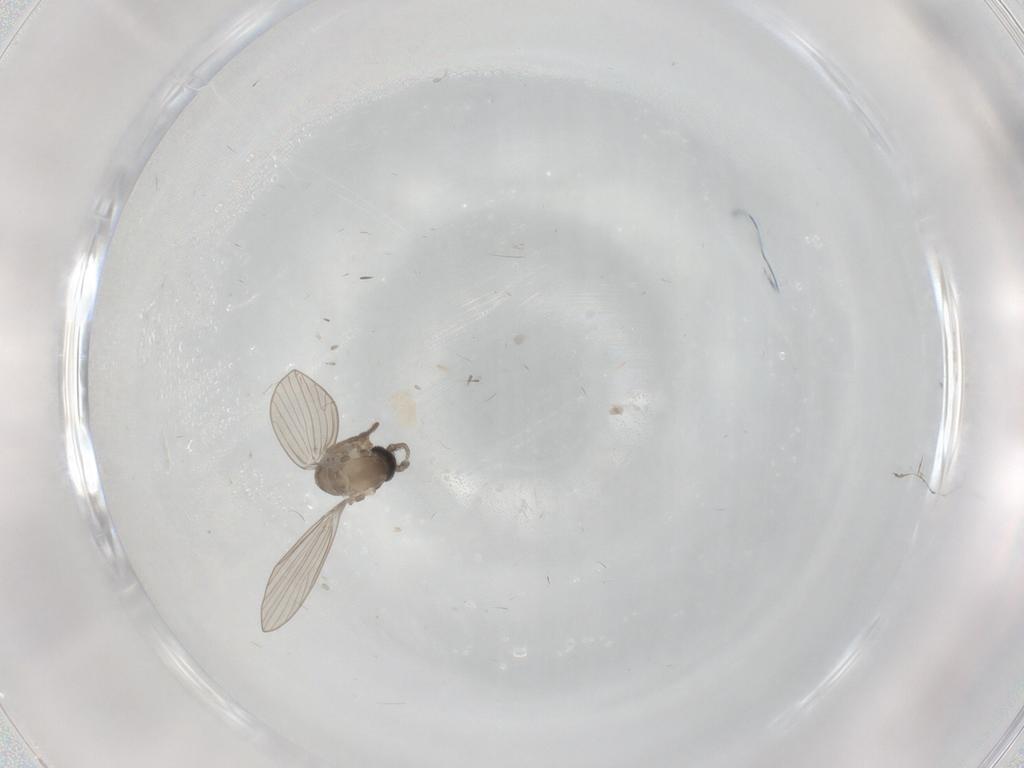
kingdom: Animalia
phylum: Arthropoda
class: Insecta
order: Diptera
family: Psychodidae
